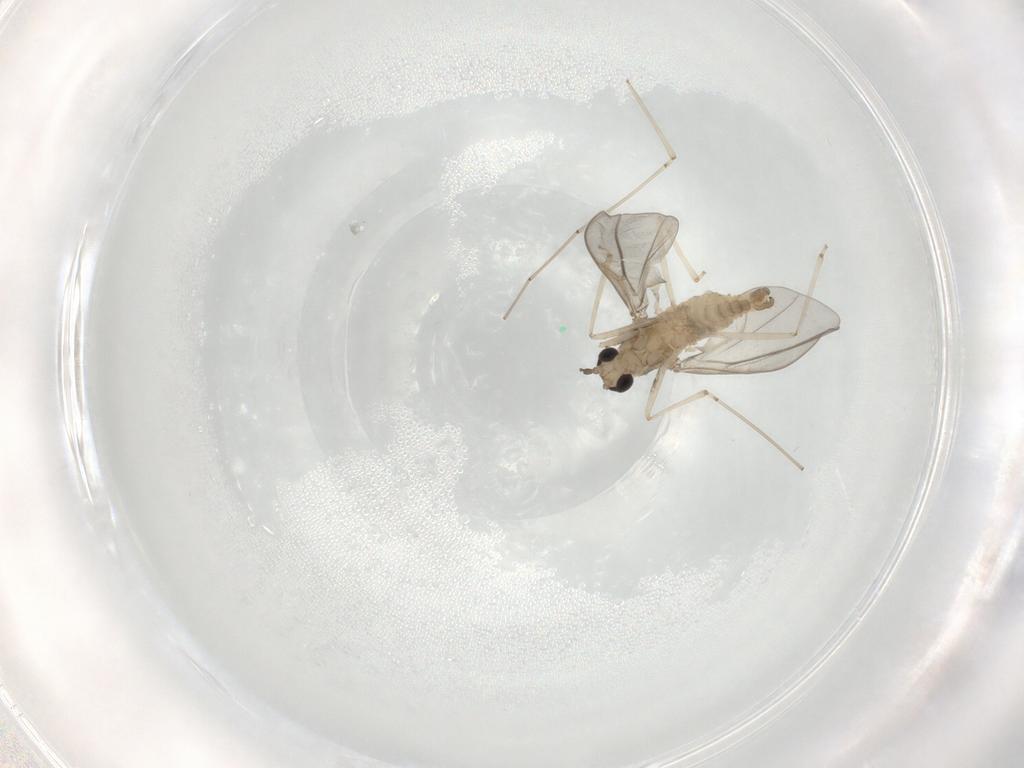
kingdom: Animalia
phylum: Arthropoda
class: Insecta
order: Diptera
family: Cecidomyiidae
